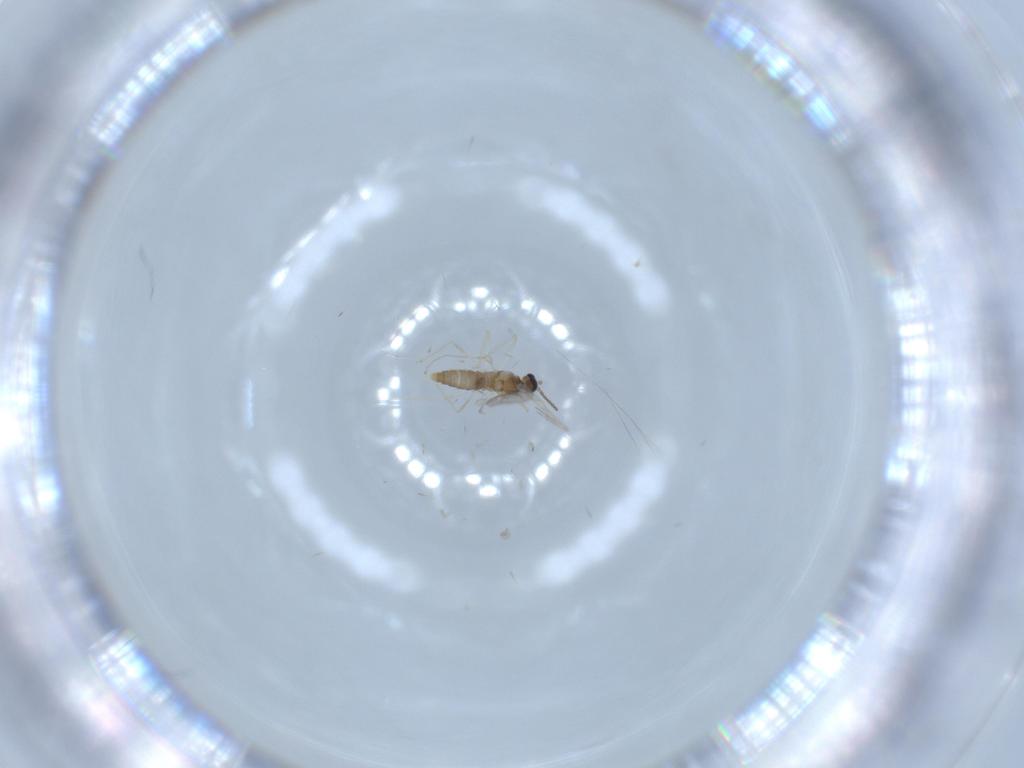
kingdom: Animalia
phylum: Arthropoda
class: Insecta
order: Diptera
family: Cecidomyiidae
